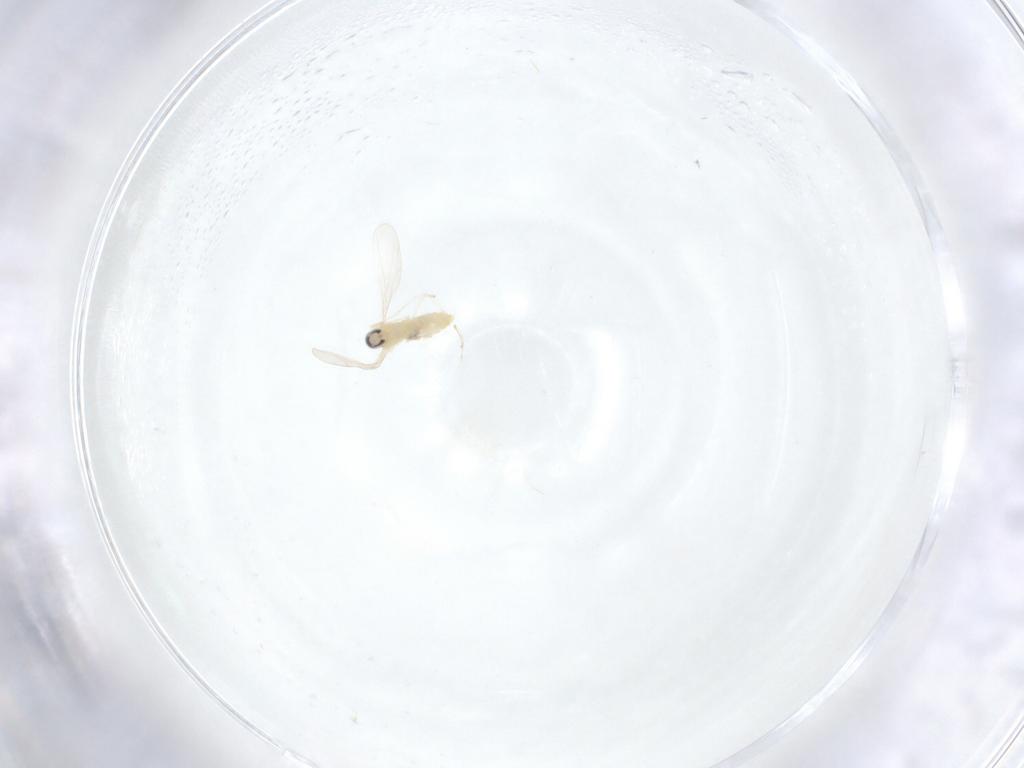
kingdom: Animalia
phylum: Arthropoda
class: Insecta
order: Diptera
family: Cecidomyiidae
